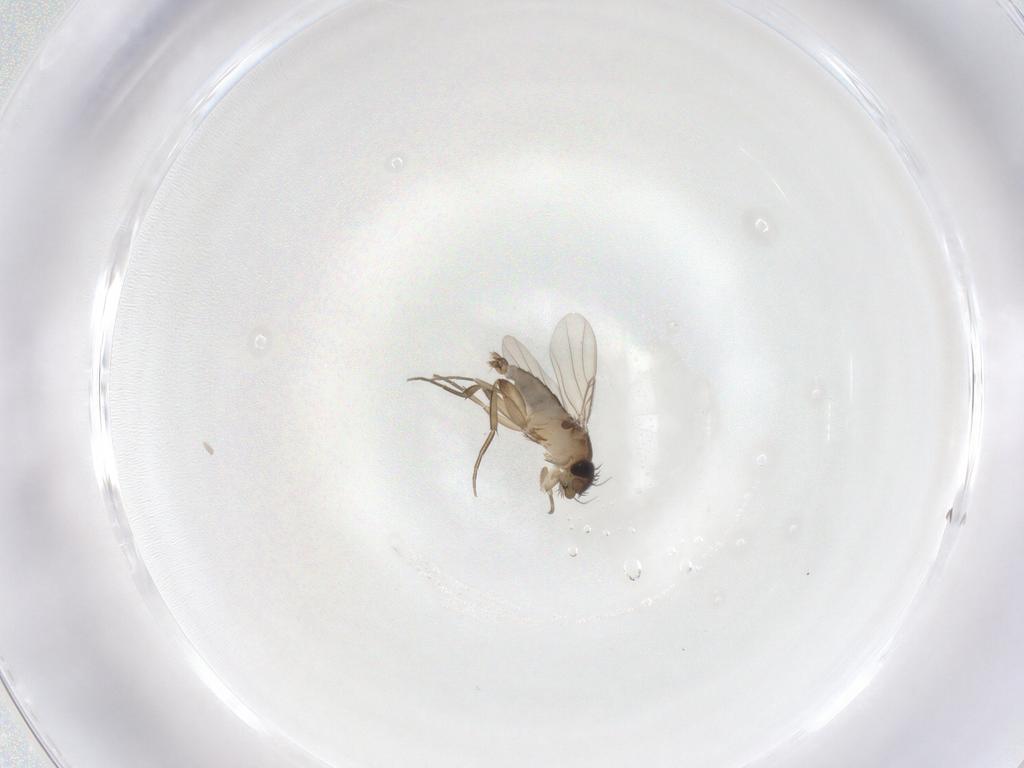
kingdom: Animalia
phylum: Arthropoda
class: Insecta
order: Diptera
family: Phoridae
